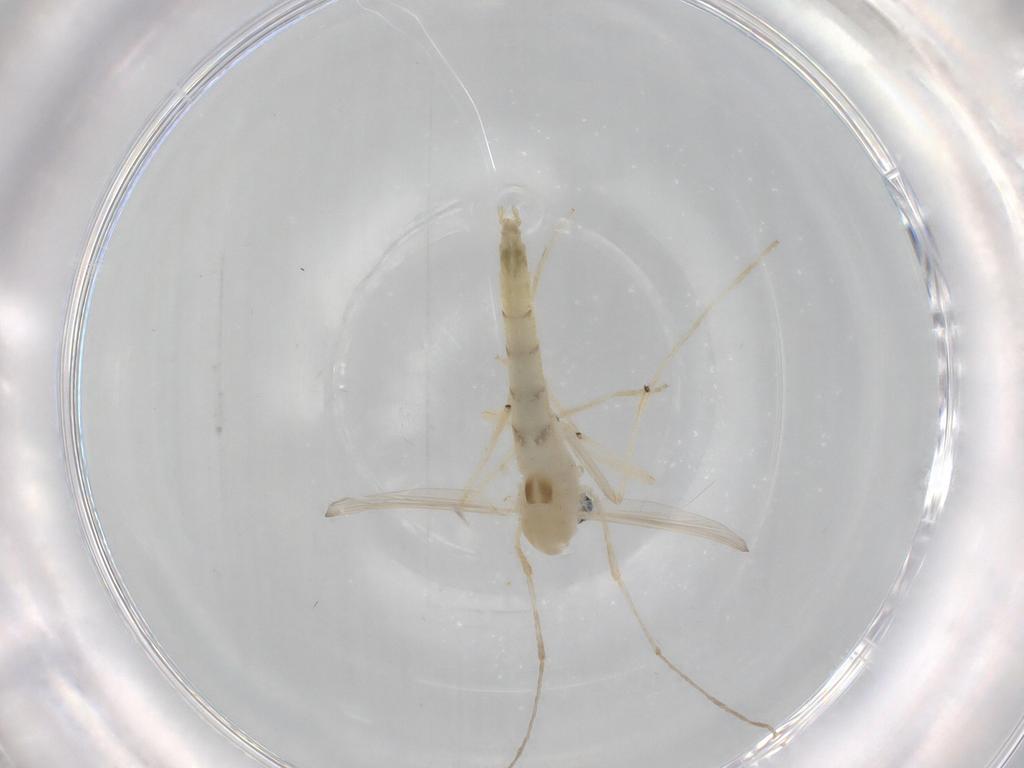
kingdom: Animalia
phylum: Arthropoda
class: Insecta
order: Diptera
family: Chironomidae
